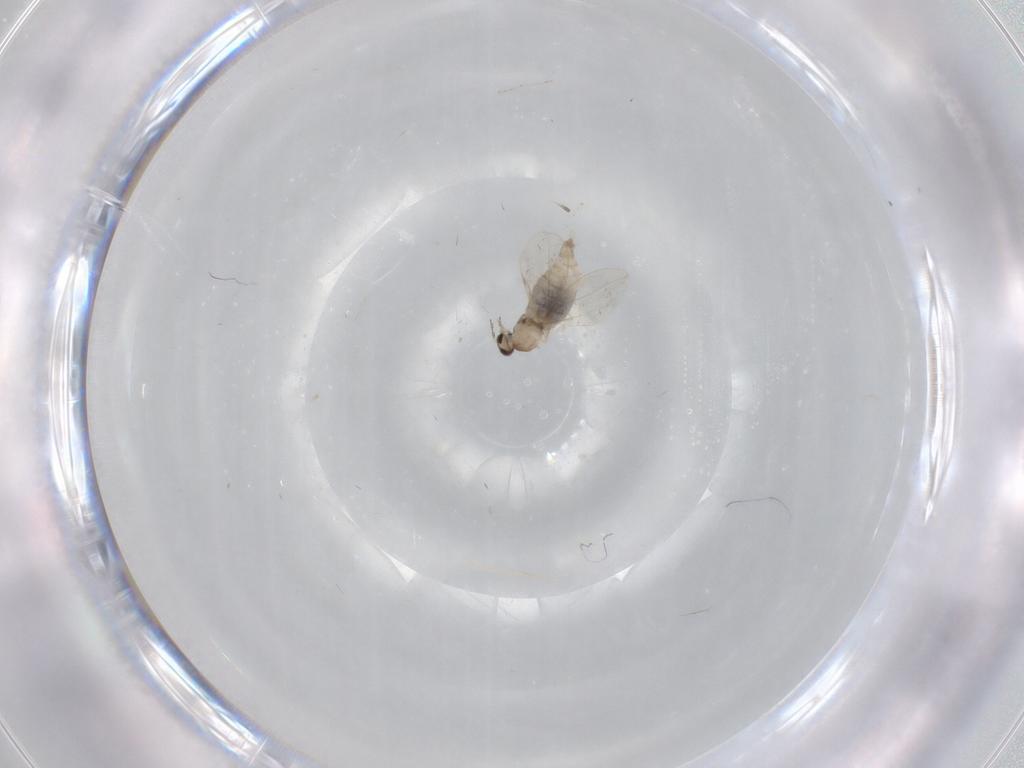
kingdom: Animalia
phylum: Arthropoda
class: Insecta
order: Diptera
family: Cecidomyiidae
